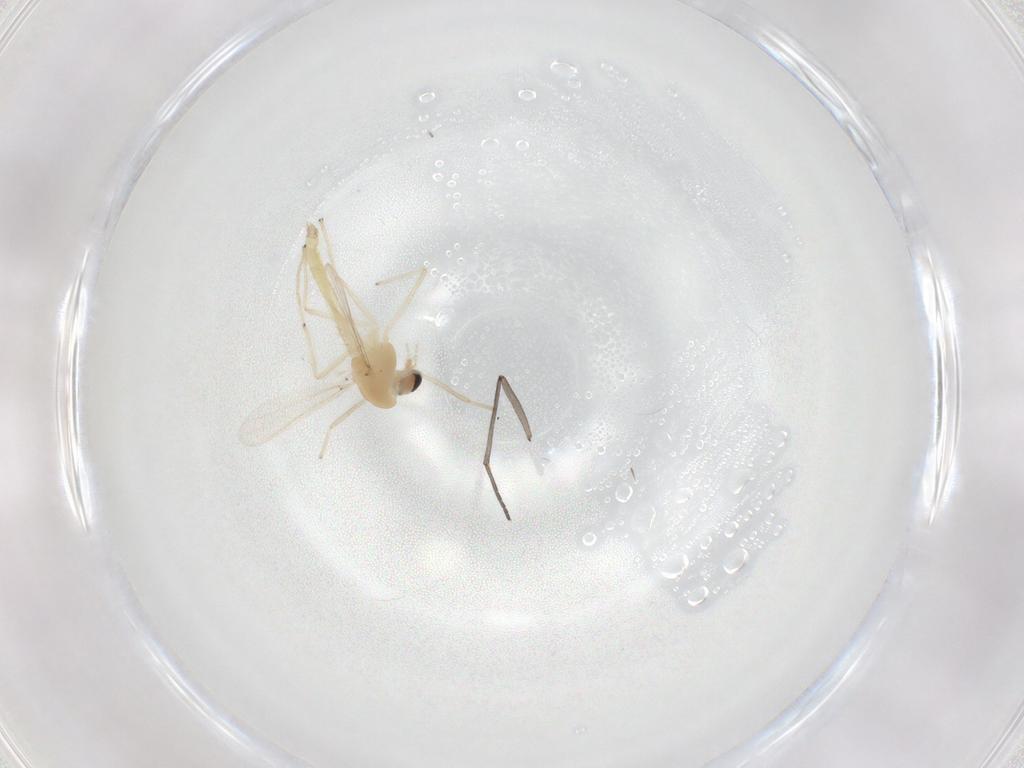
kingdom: Animalia
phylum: Arthropoda
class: Insecta
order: Diptera
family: Chironomidae
